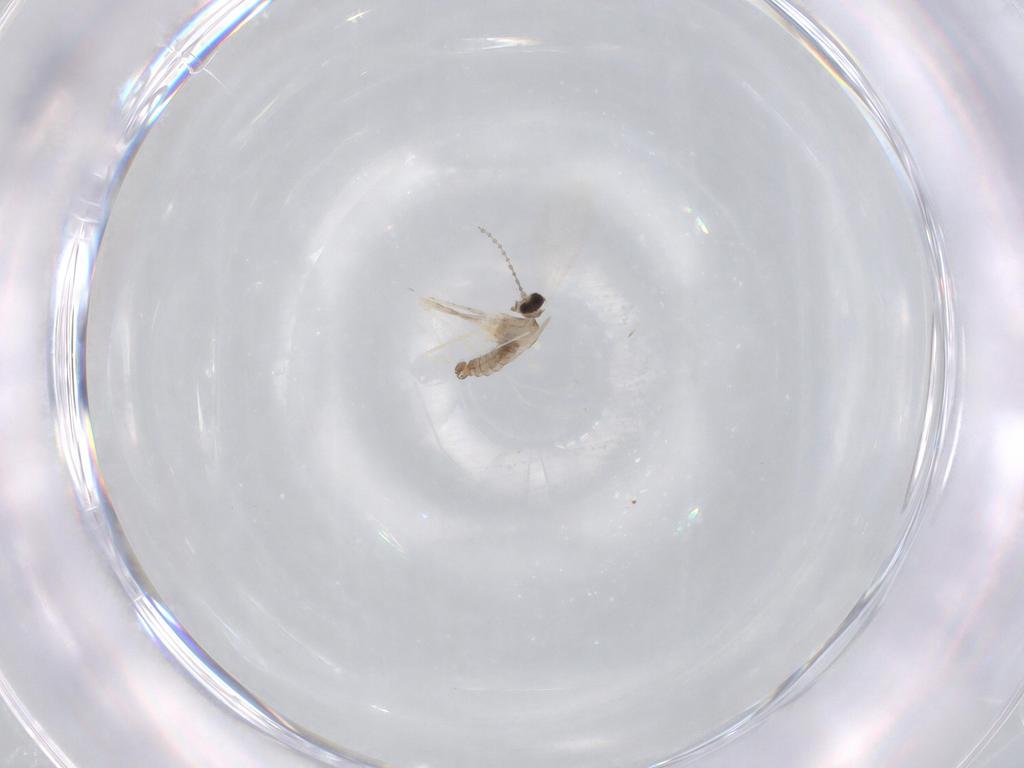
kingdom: Animalia
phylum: Arthropoda
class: Insecta
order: Diptera
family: Cecidomyiidae
